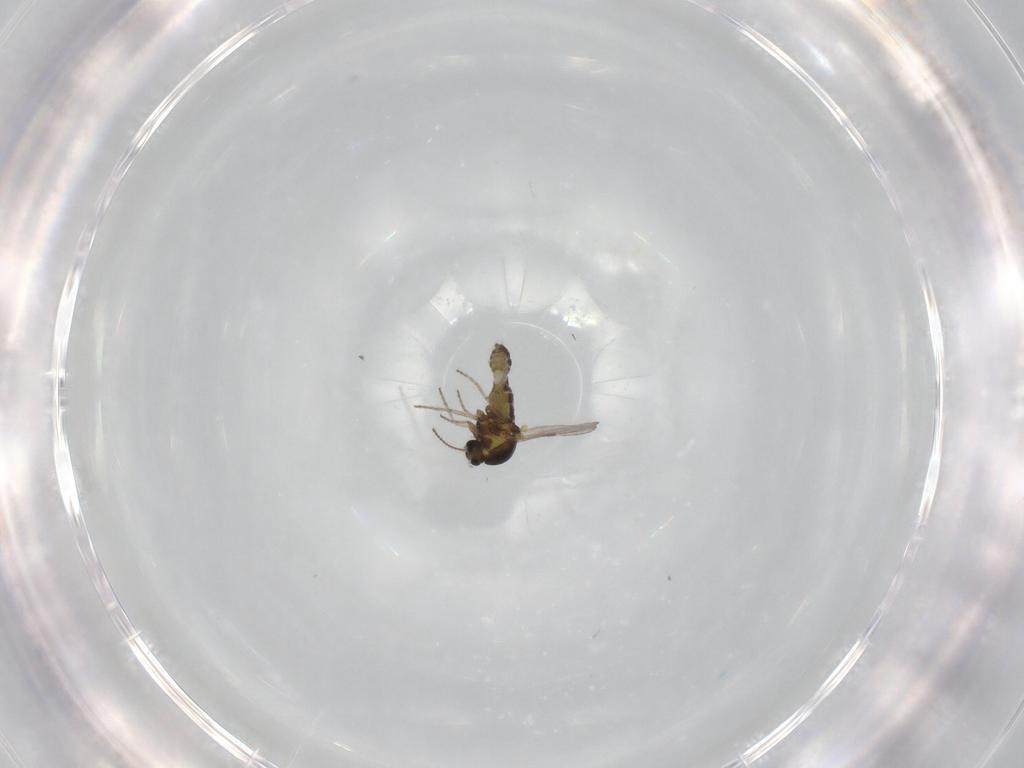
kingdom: Animalia
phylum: Arthropoda
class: Insecta
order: Diptera
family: Ceratopogonidae
